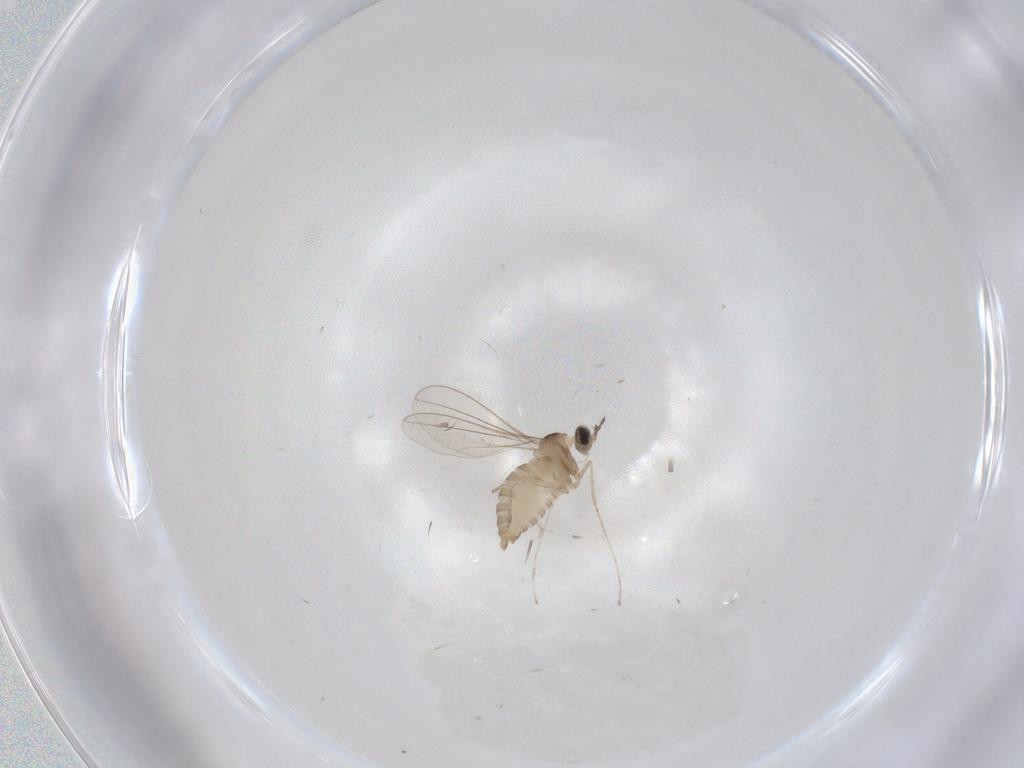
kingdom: Animalia
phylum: Arthropoda
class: Insecta
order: Diptera
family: Cecidomyiidae
